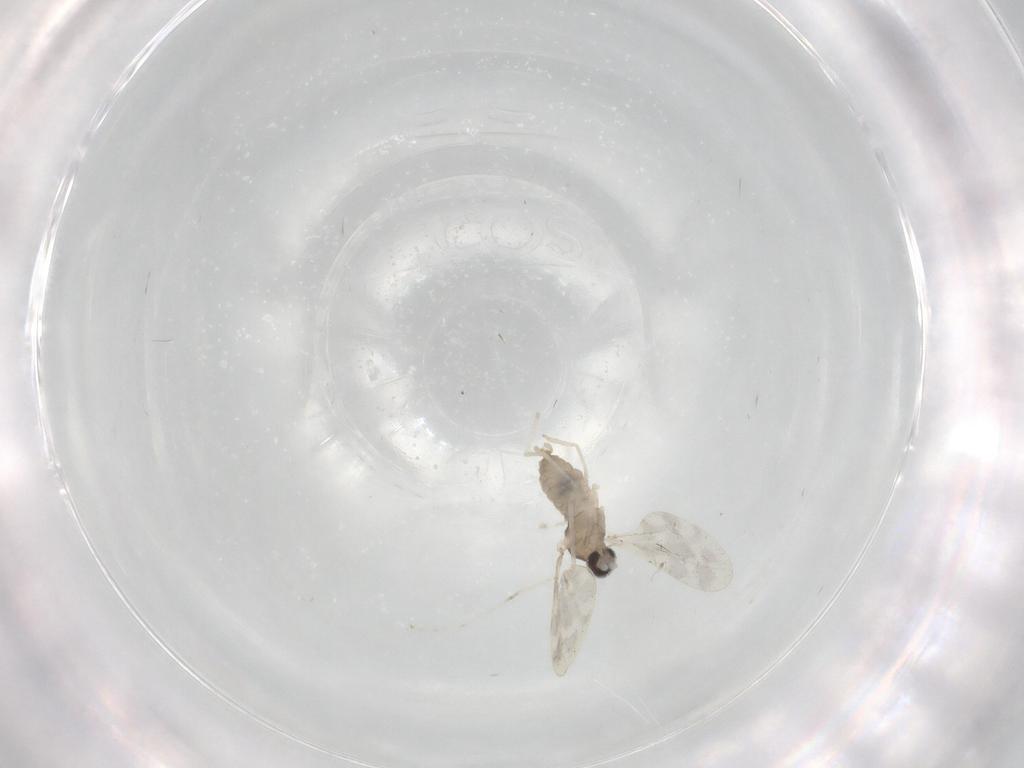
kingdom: Animalia
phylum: Arthropoda
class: Insecta
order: Diptera
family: Cecidomyiidae
